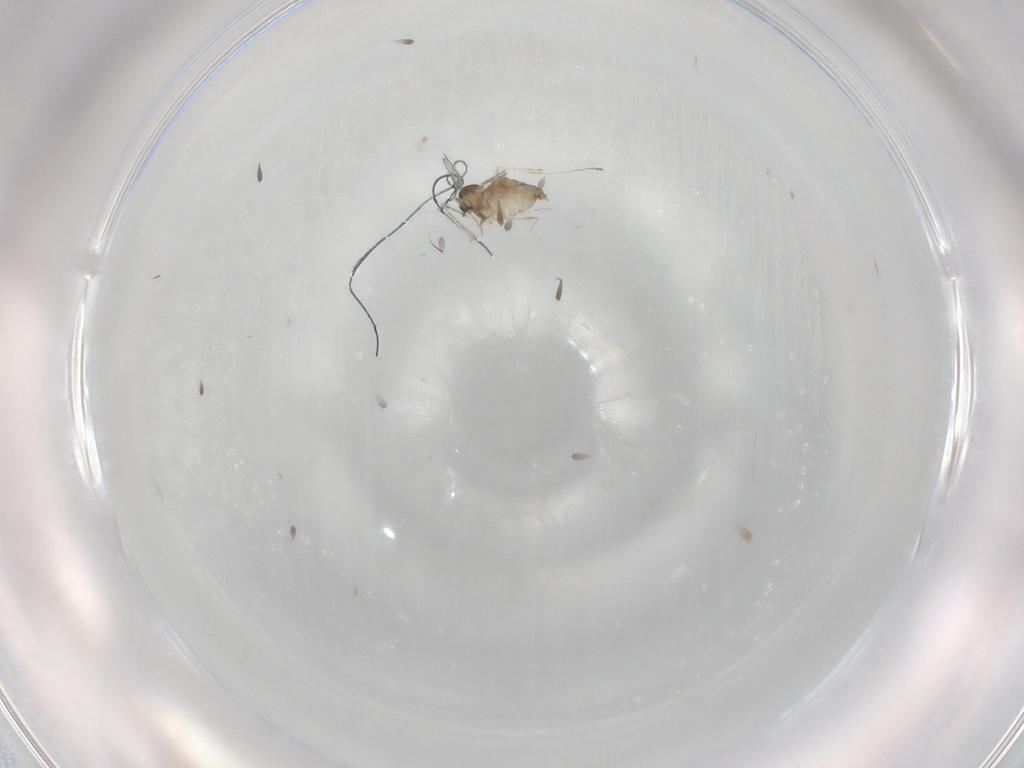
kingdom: Animalia
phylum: Arthropoda
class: Insecta
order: Diptera
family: Cecidomyiidae
